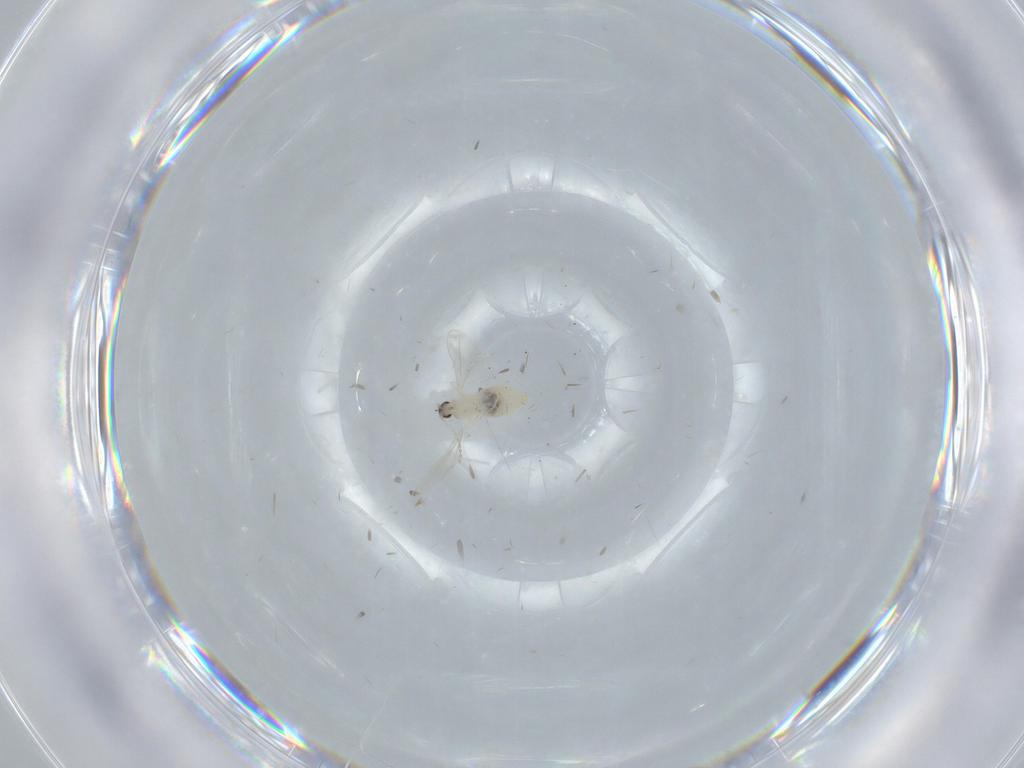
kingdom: Animalia
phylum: Arthropoda
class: Insecta
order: Diptera
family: Cecidomyiidae
